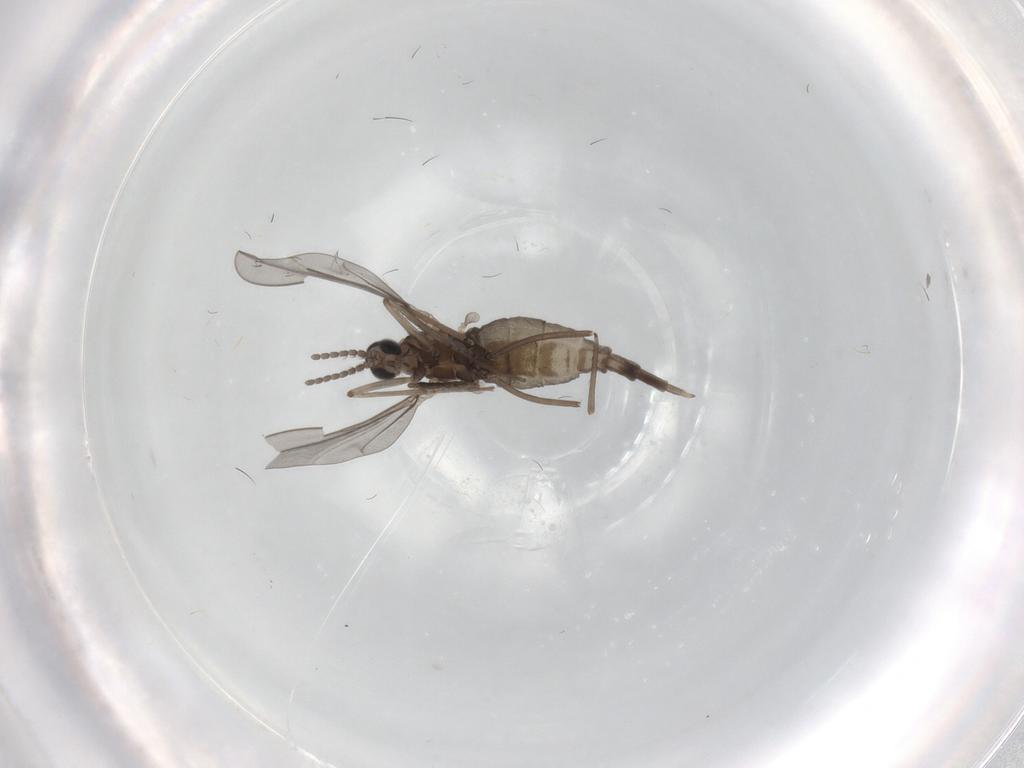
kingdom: Animalia
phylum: Arthropoda
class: Insecta
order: Diptera
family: Cecidomyiidae
